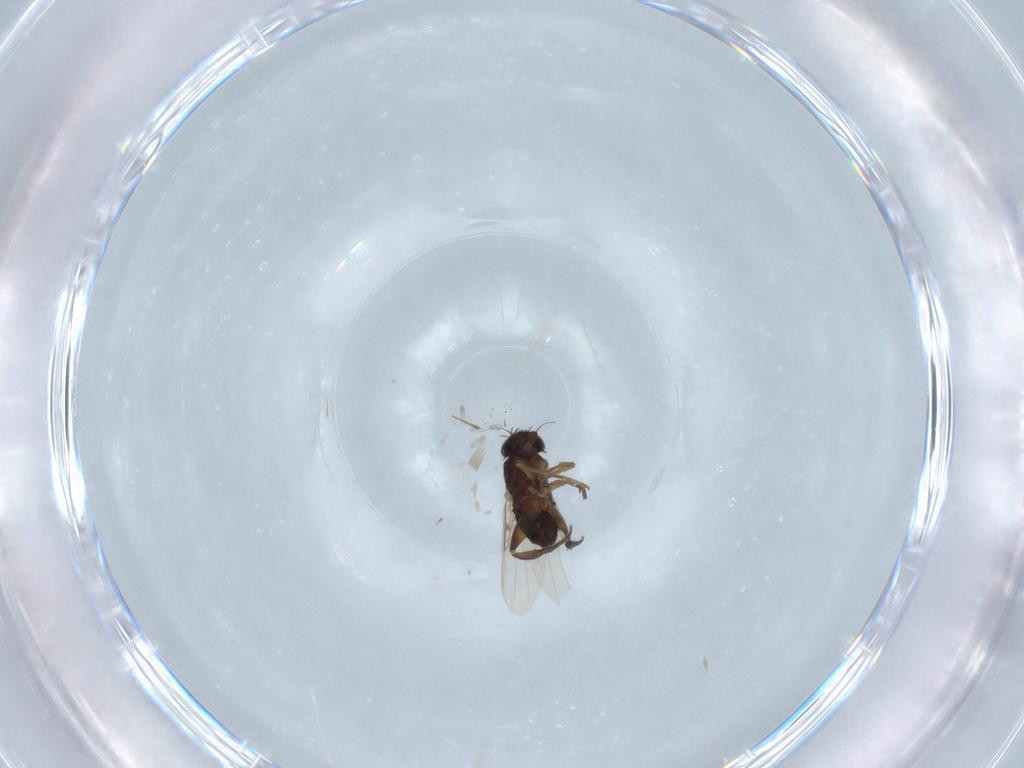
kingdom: Animalia
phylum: Arthropoda
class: Insecta
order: Diptera
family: Phoridae
